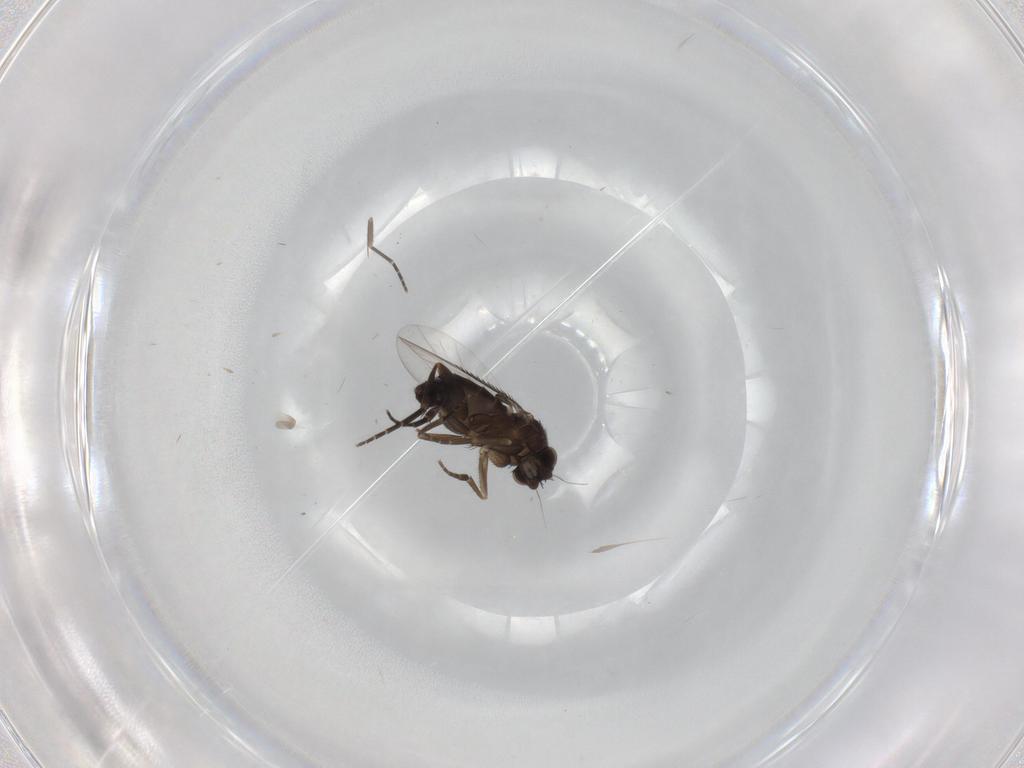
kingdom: Animalia
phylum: Arthropoda
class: Insecta
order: Diptera
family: Phoridae
